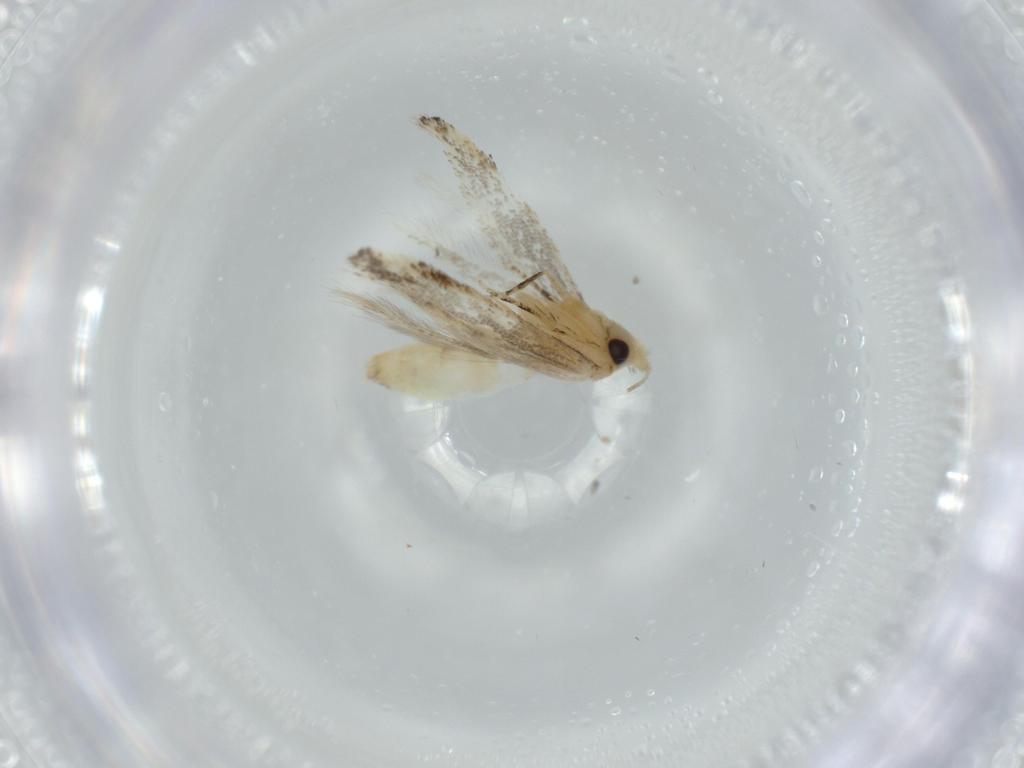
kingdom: Animalia
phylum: Arthropoda
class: Insecta
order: Lepidoptera
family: Bucculatricidae
